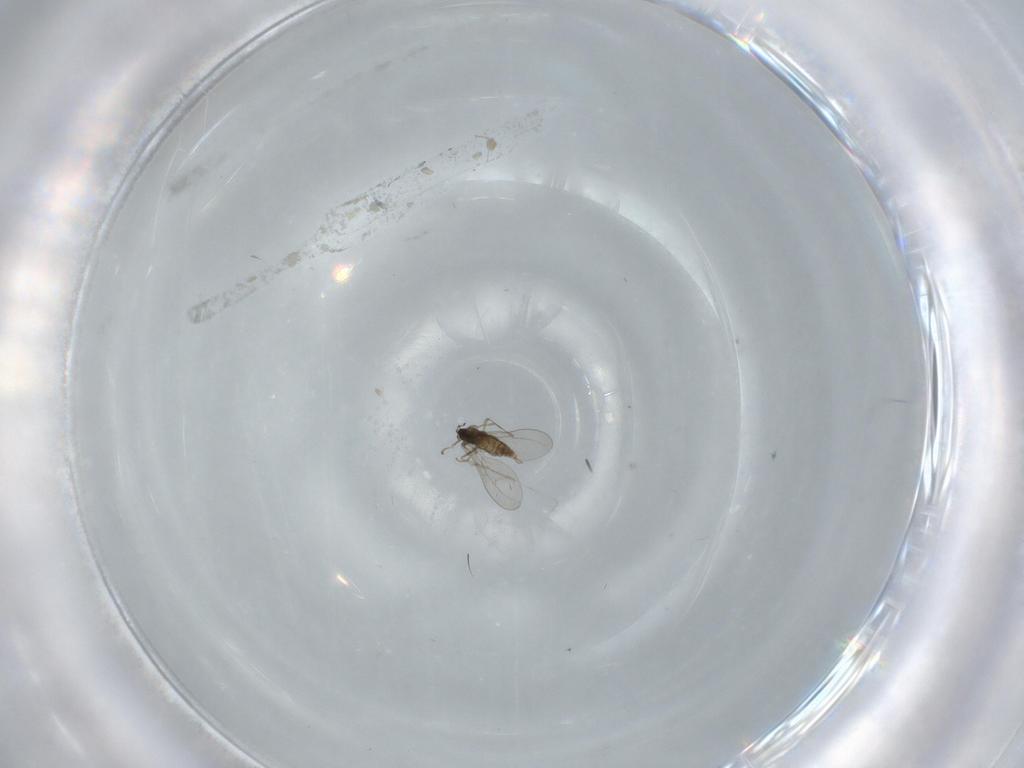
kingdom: Animalia
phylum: Arthropoda
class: Insecta
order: Diptera
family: Cecidomyiidae
